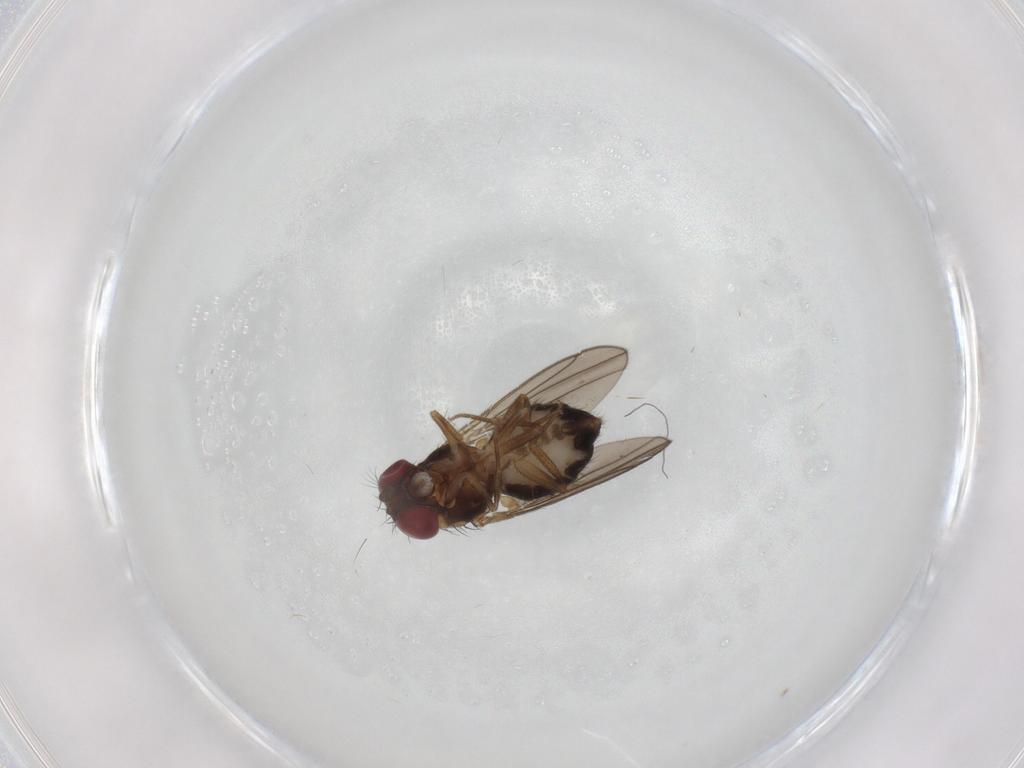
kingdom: Animalia
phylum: Arthropoda
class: Insecta
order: Diptera
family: Drosophilidae
